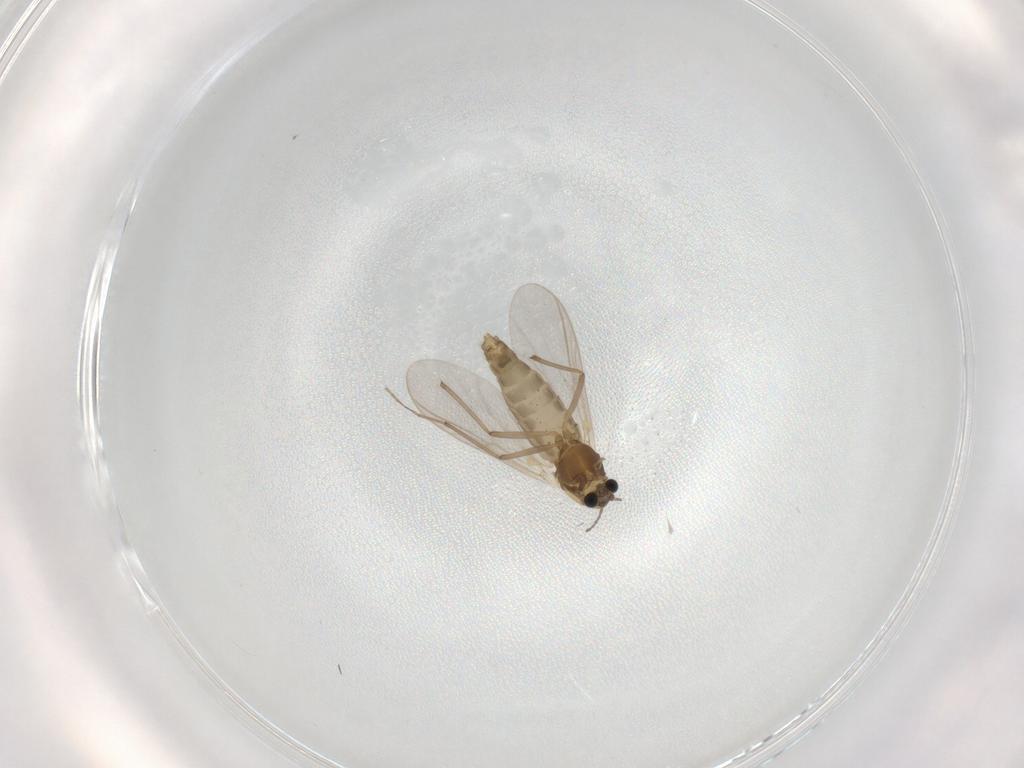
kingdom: Animalia
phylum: Arthropoda
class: Insecta
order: Diptera
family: Chironomidae
